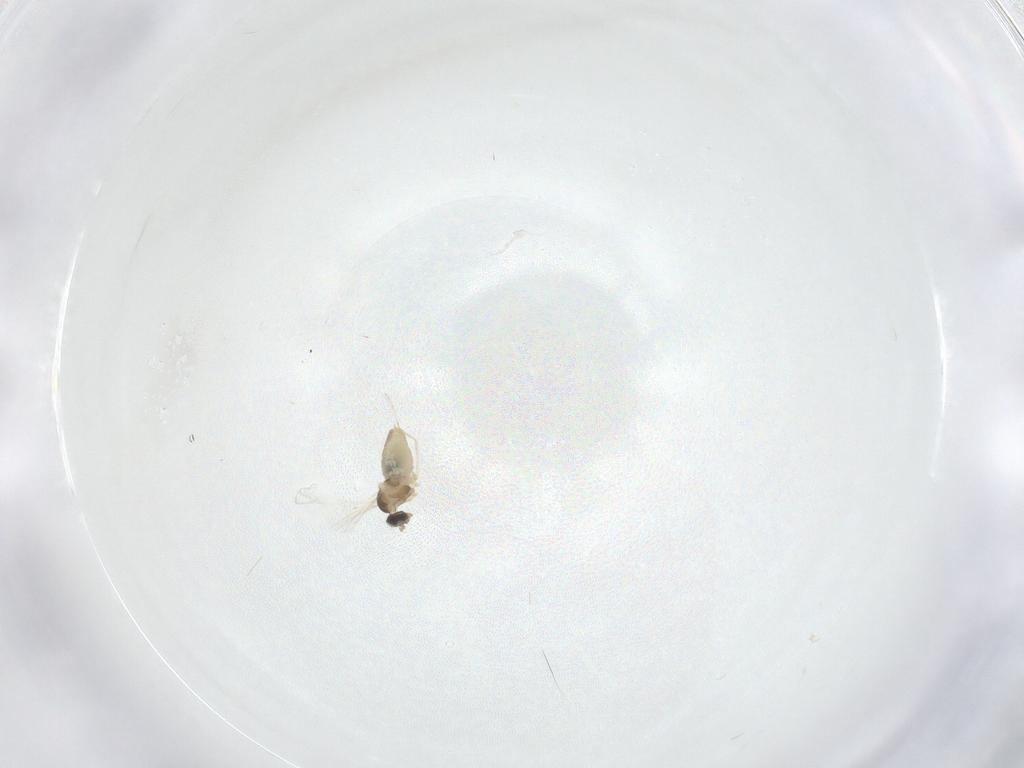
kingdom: Animalia
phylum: Arthropoda
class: Insecta
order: Diptera
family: Cecidomyiidae
